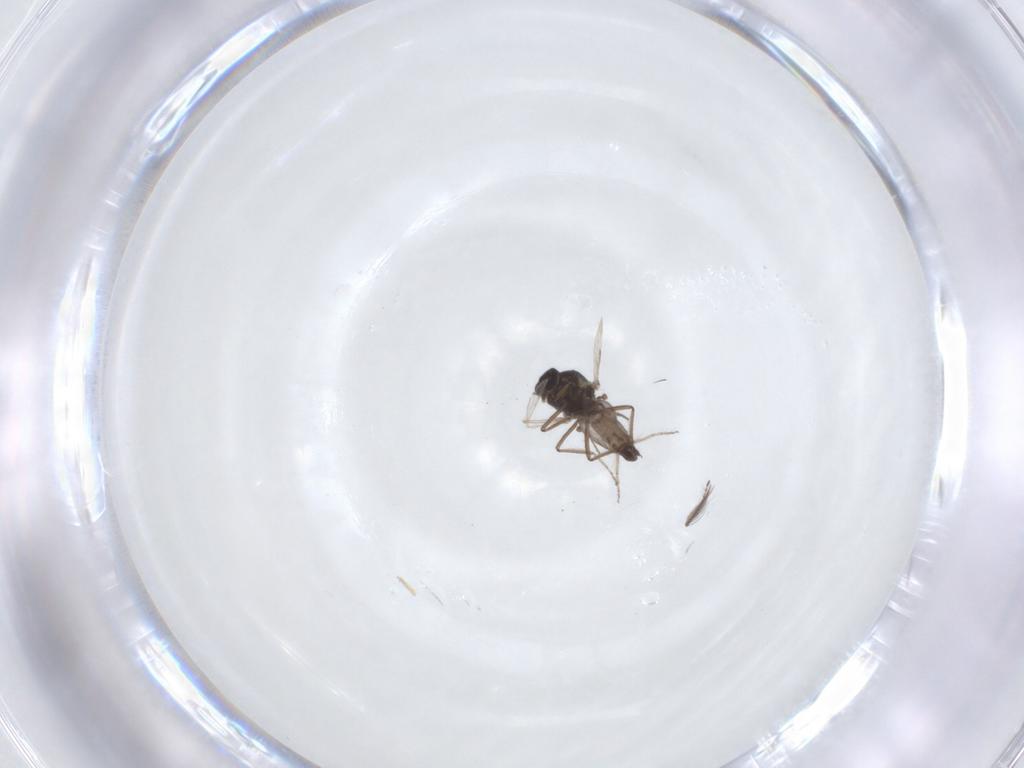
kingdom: Animalia
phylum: Arthropoda
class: Insecta
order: Diptera
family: Ceratopogonidae
